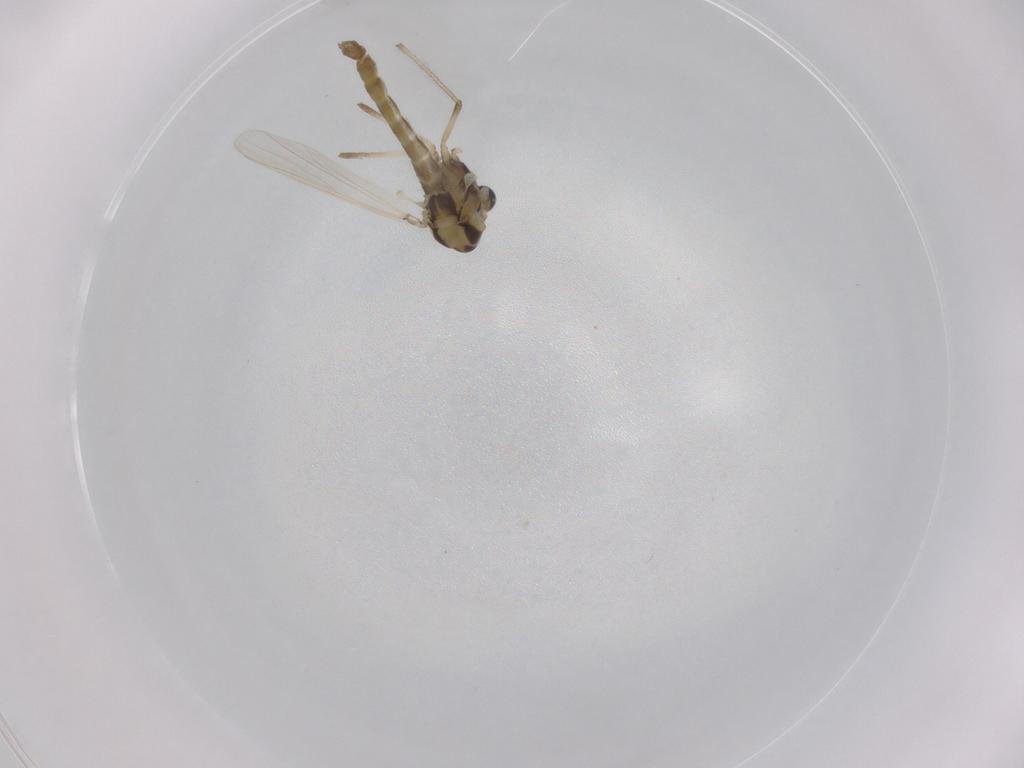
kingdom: Animalia
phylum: Arthropoda
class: Insecta
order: Diptera
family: Chironomidae
